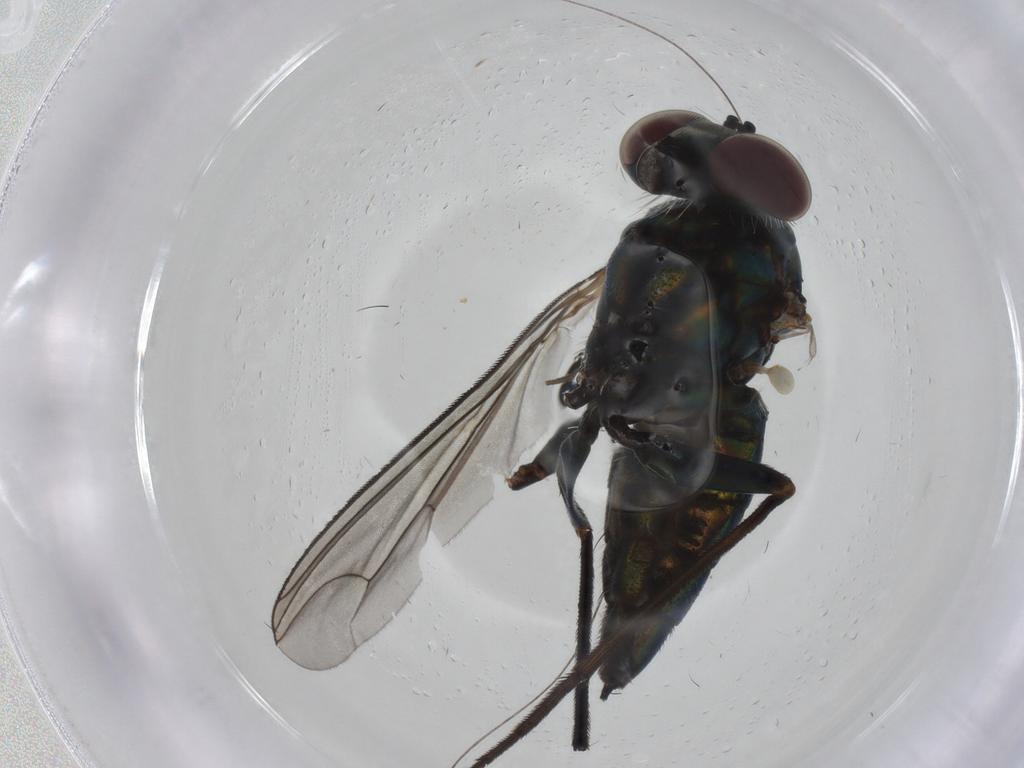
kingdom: Animalia
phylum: Arthropoda
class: Insecta
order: Diptera
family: Dolichopodidae
